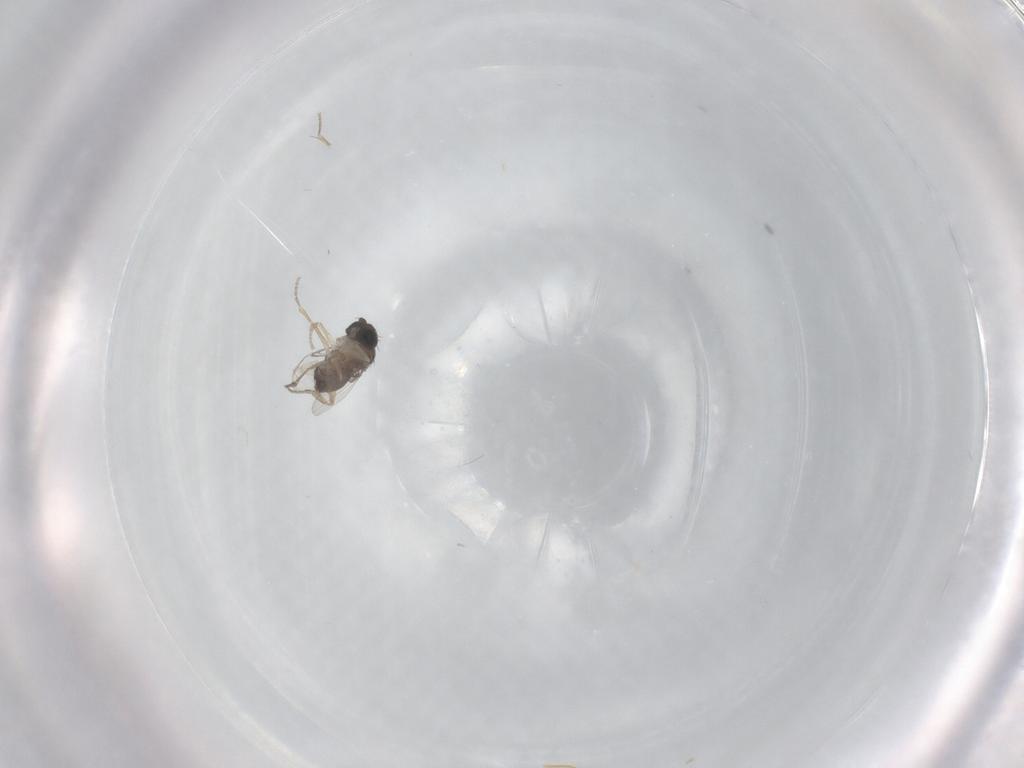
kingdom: Animalia
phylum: Arthropoda
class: Insecta
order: Diptera
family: Phoridae
